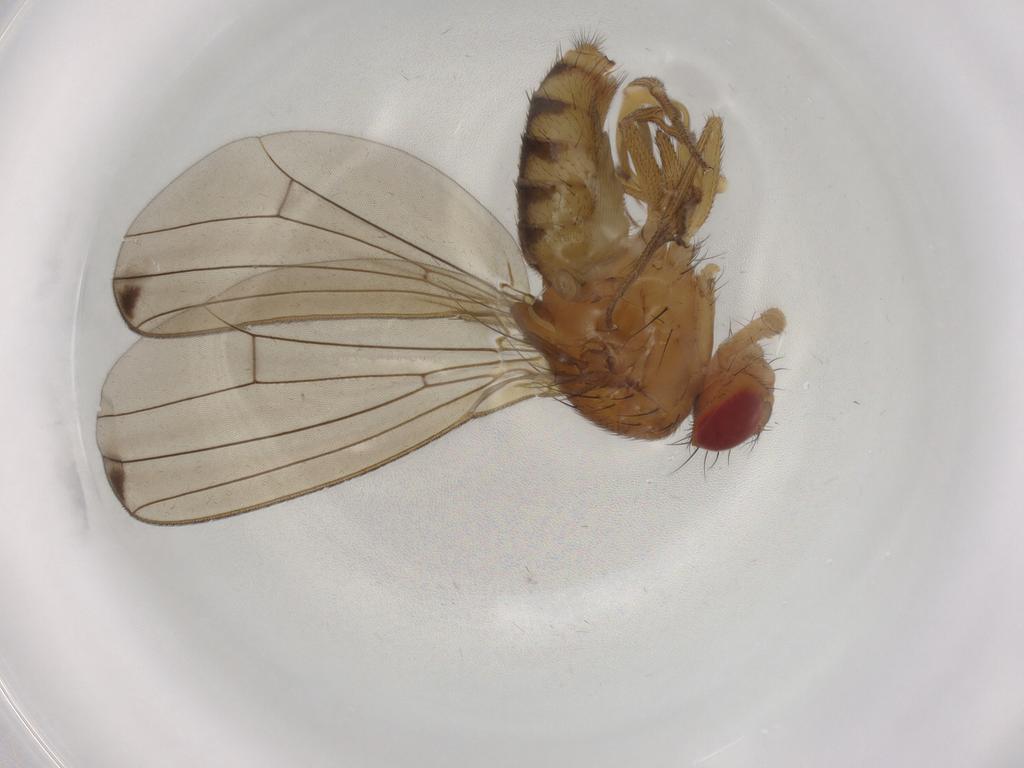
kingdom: Animalia
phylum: Arthropoda
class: Insecta
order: Diptera
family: Drosophilidae
